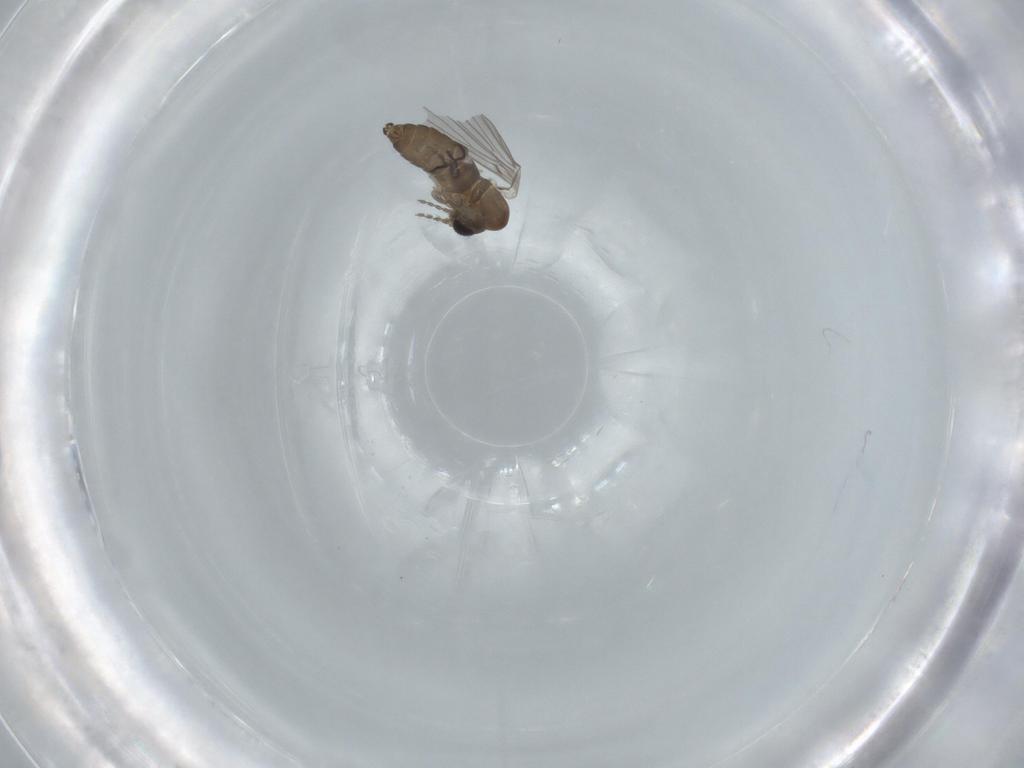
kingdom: Animalia
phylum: Arthropoda
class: Insecta
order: Diptera
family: Psychodidae
